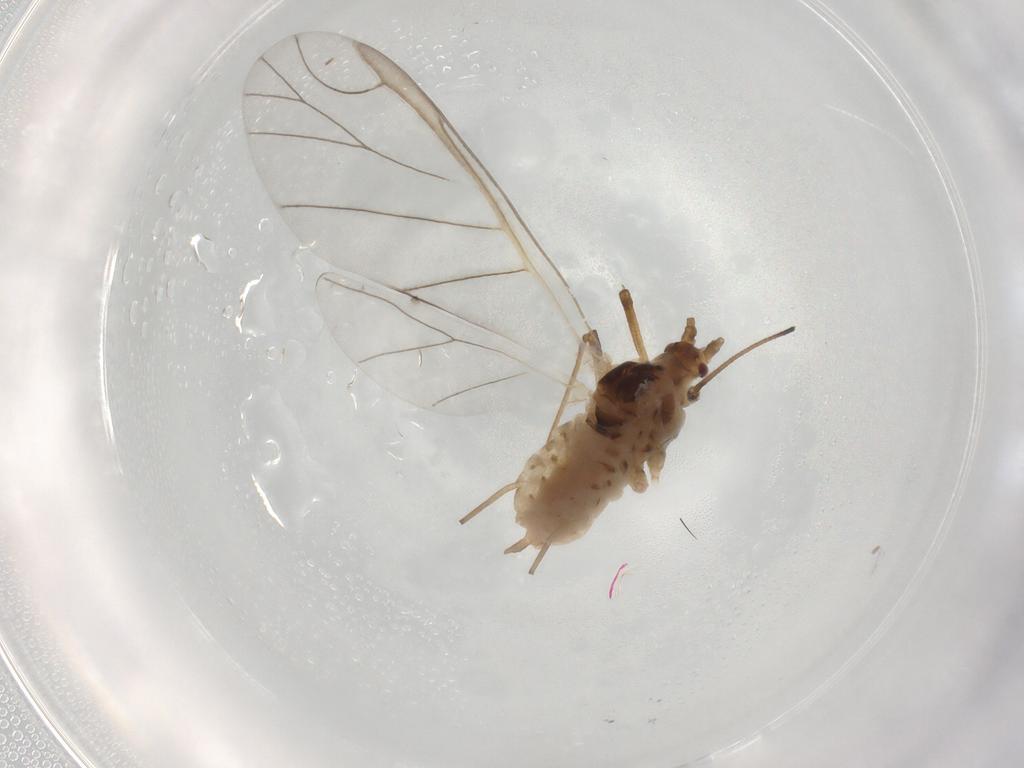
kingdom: Animalia
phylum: Arthropoda
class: Insecta
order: Hemiptera
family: Aphididae
